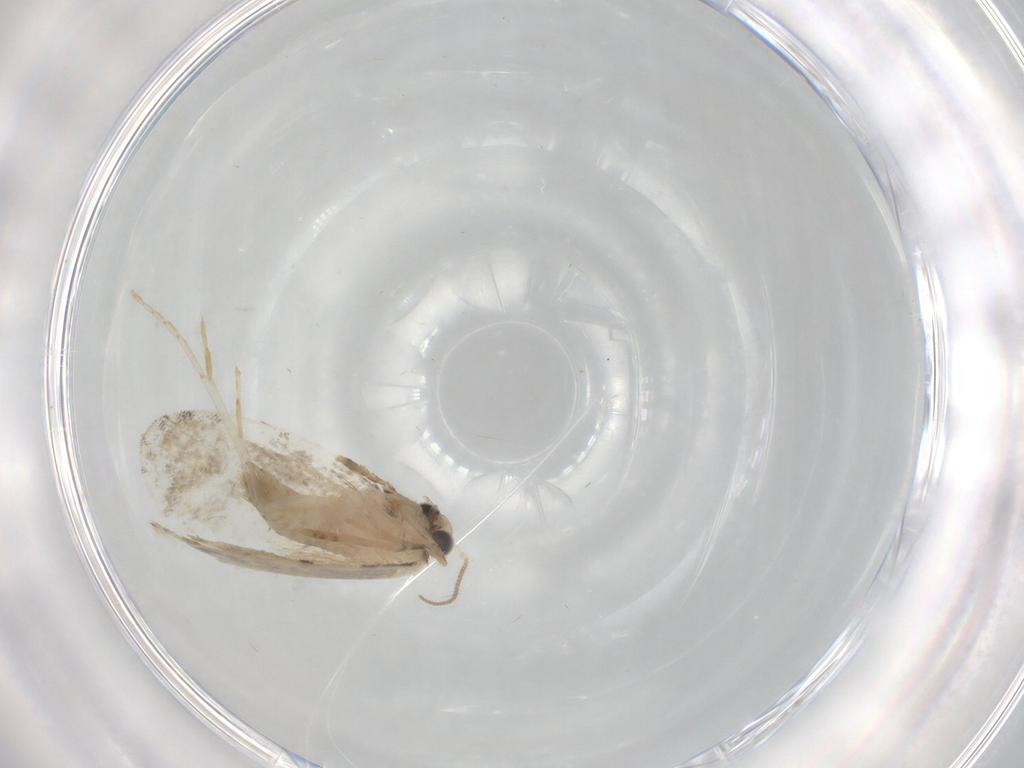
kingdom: Animalia
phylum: Arthropoda
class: Insecta
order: Lepidoptera
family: Psychidae
